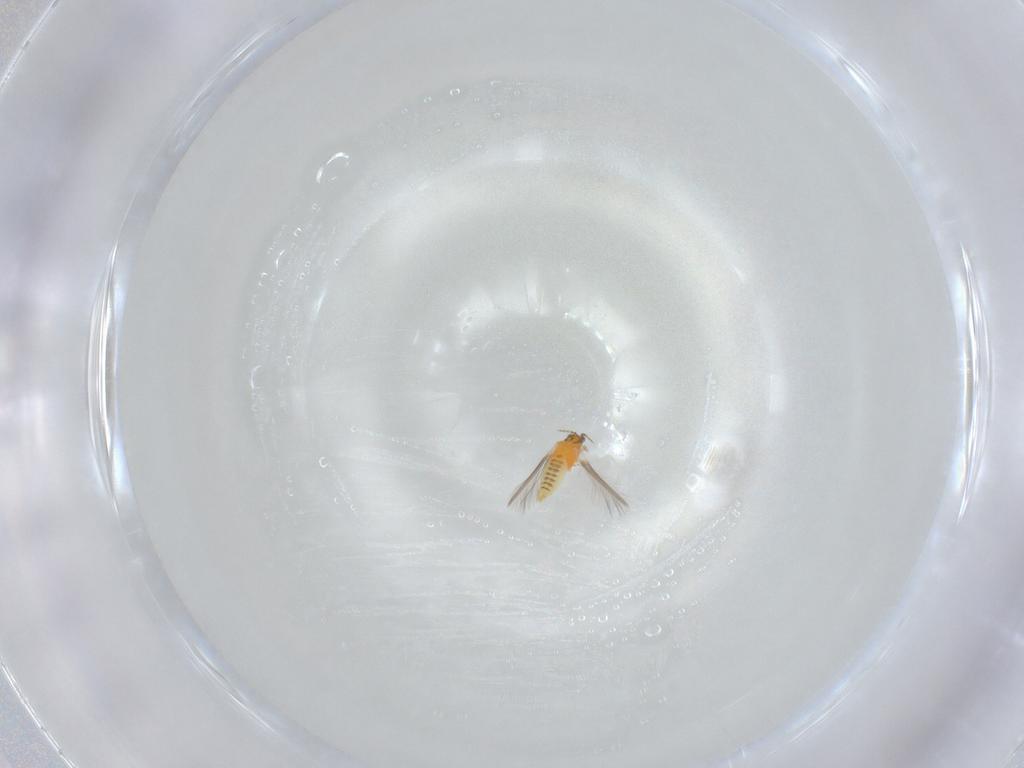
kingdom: Animalia
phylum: Arthropoda
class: Insecta
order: Thysanoptera
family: Thripidae
